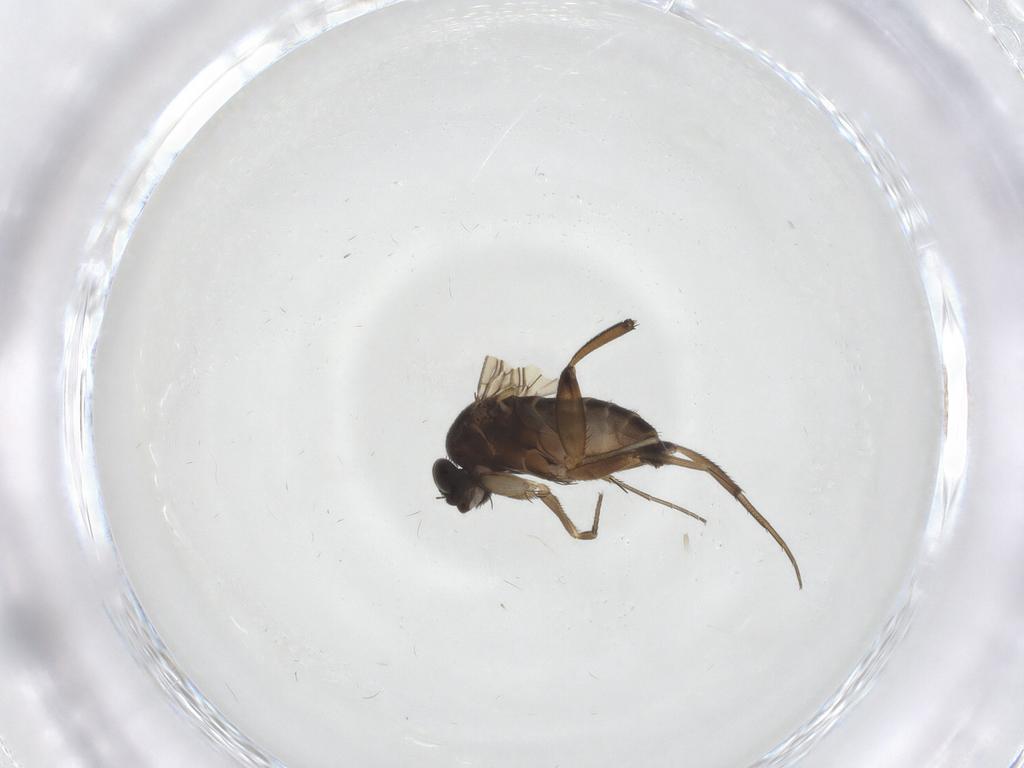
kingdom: Animalia
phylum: Arthropoda
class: Insecta
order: Diptera
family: Phoridae
